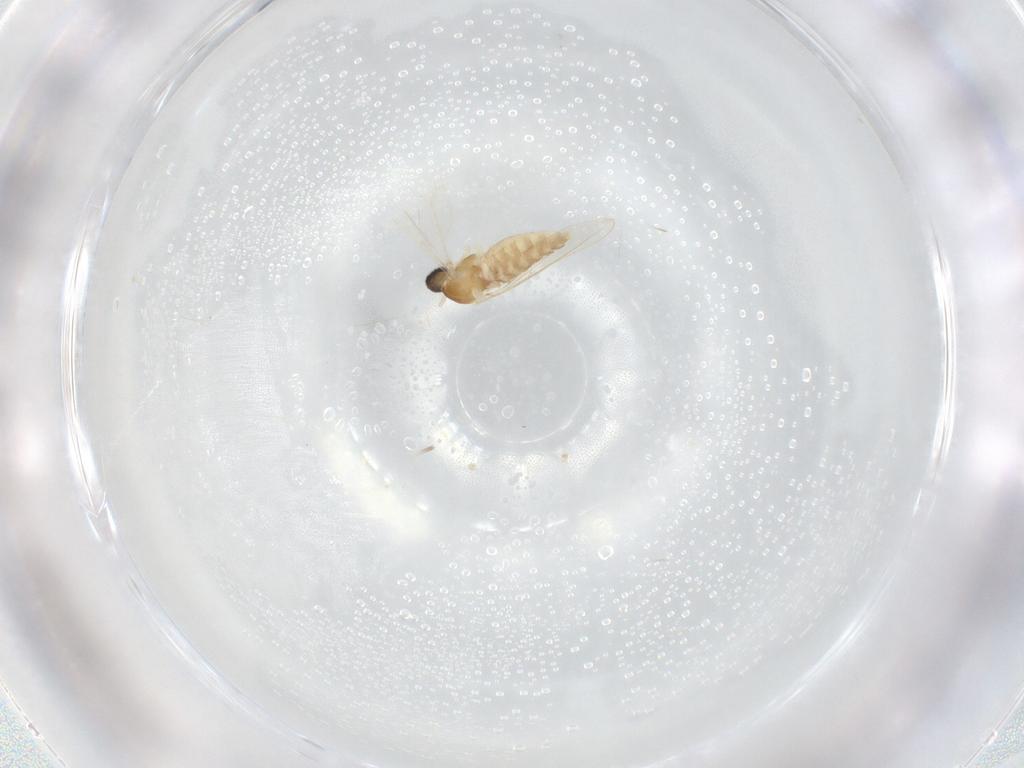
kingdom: Animalia
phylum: Arthropoda
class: Insecta
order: Diptera
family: Cecidomyiidae
